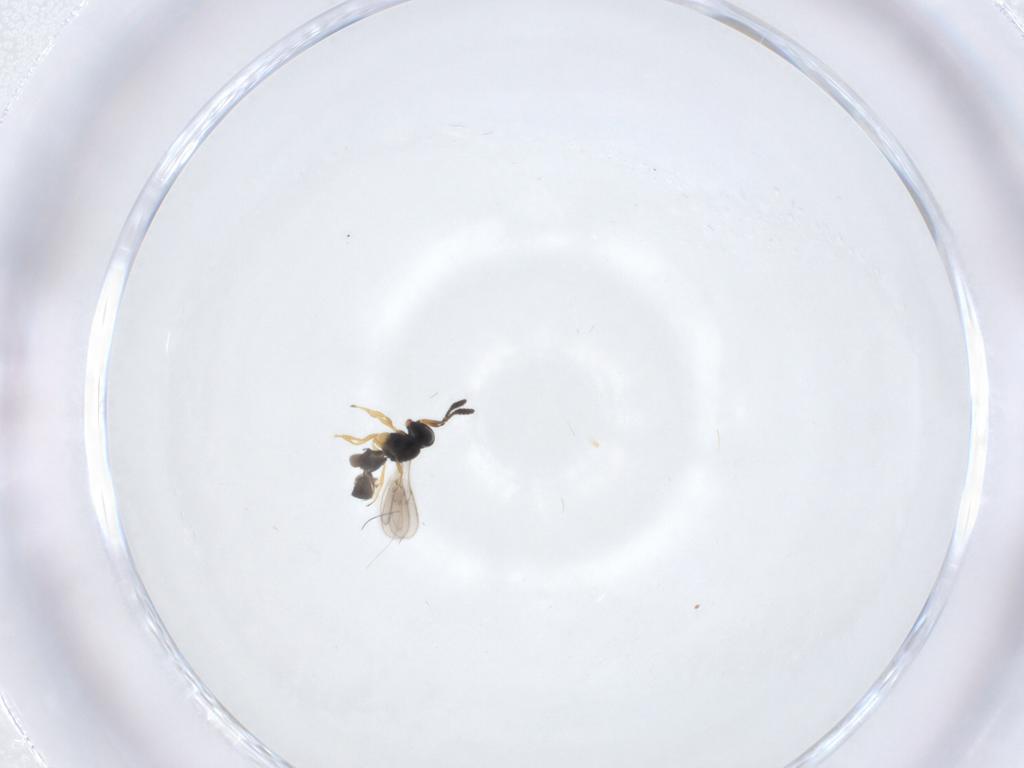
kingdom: Animalia
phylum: Arthropoda
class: Insecta
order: Hymenoptera
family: Scelionidae
